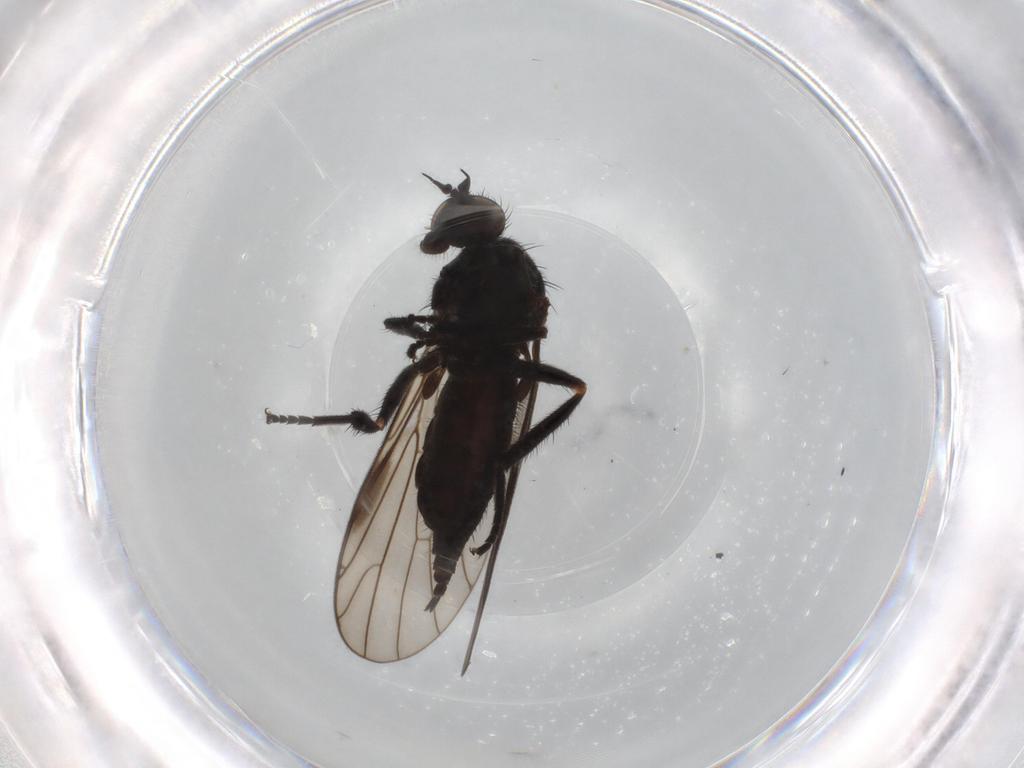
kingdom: Animalia
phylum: Arthropoda
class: Insecta
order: Diptera
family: Empididae
